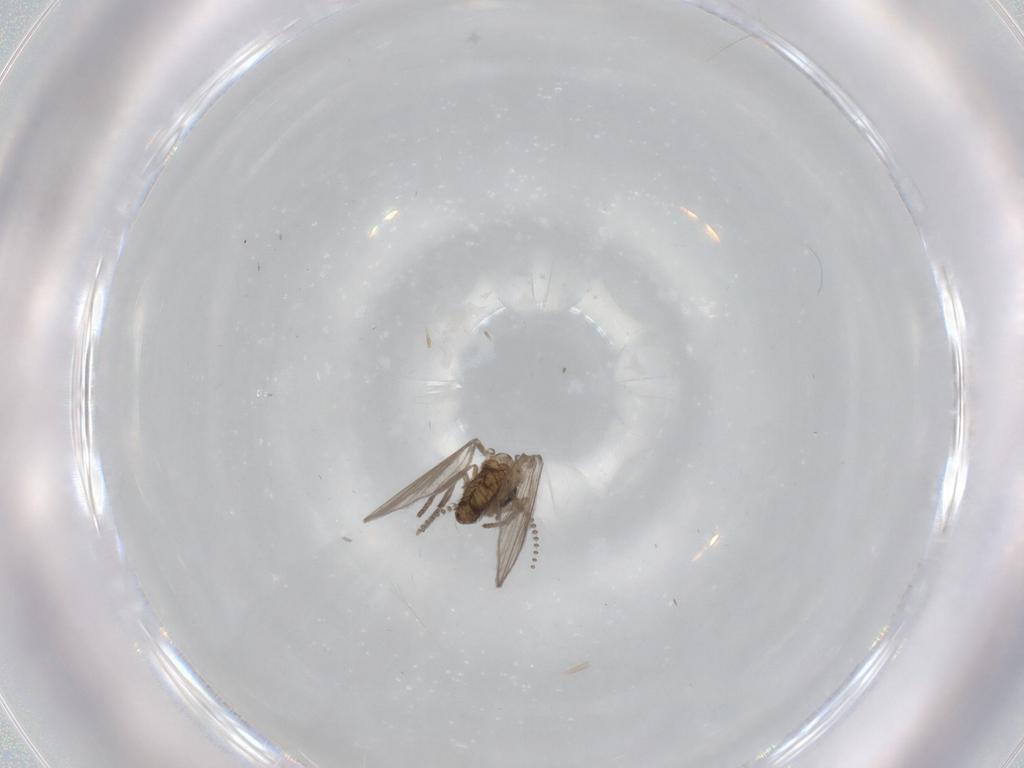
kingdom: Animalia
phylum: Arthropoda
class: Insecta
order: Diptera
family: Psychodidae
